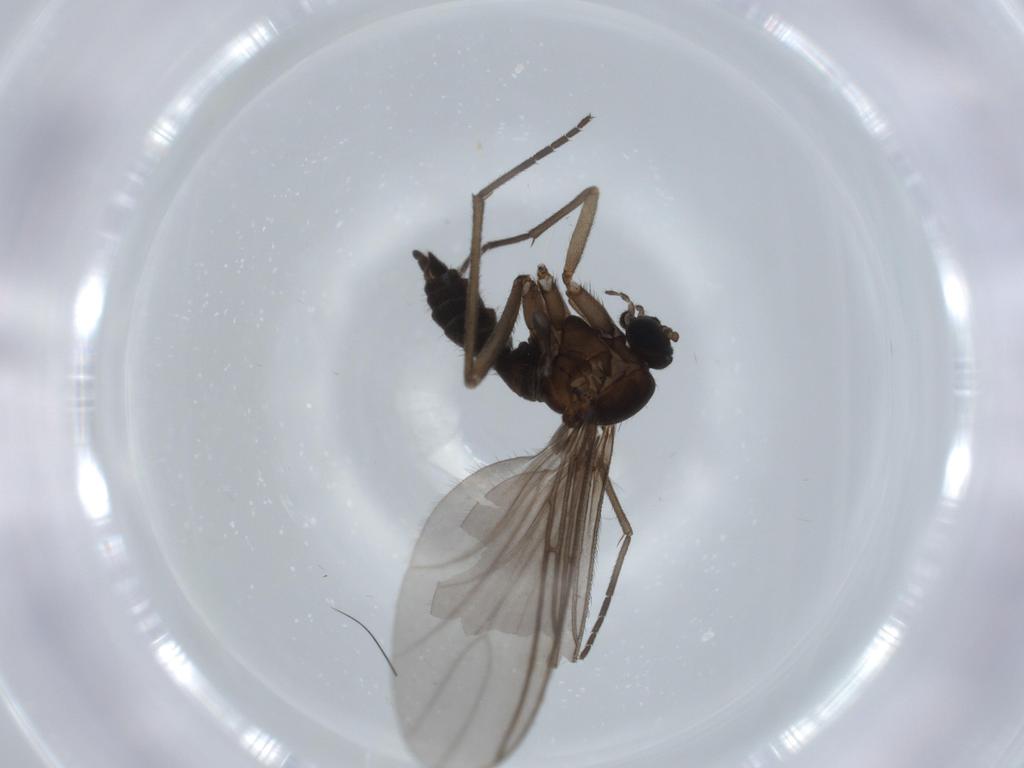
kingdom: Animalia
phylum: Arthropoda
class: Insecta
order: Diptera
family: Sciaridae
